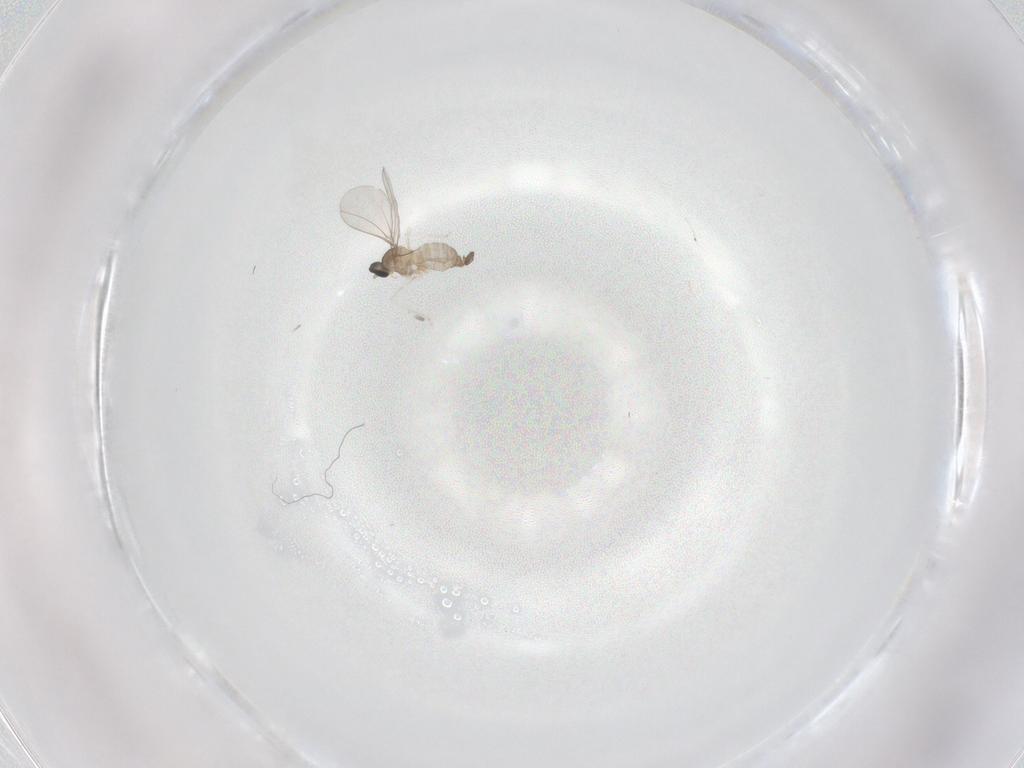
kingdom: Animalia
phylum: Arthropoda
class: Insecta
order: Diptera
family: Cecidomyiidae
